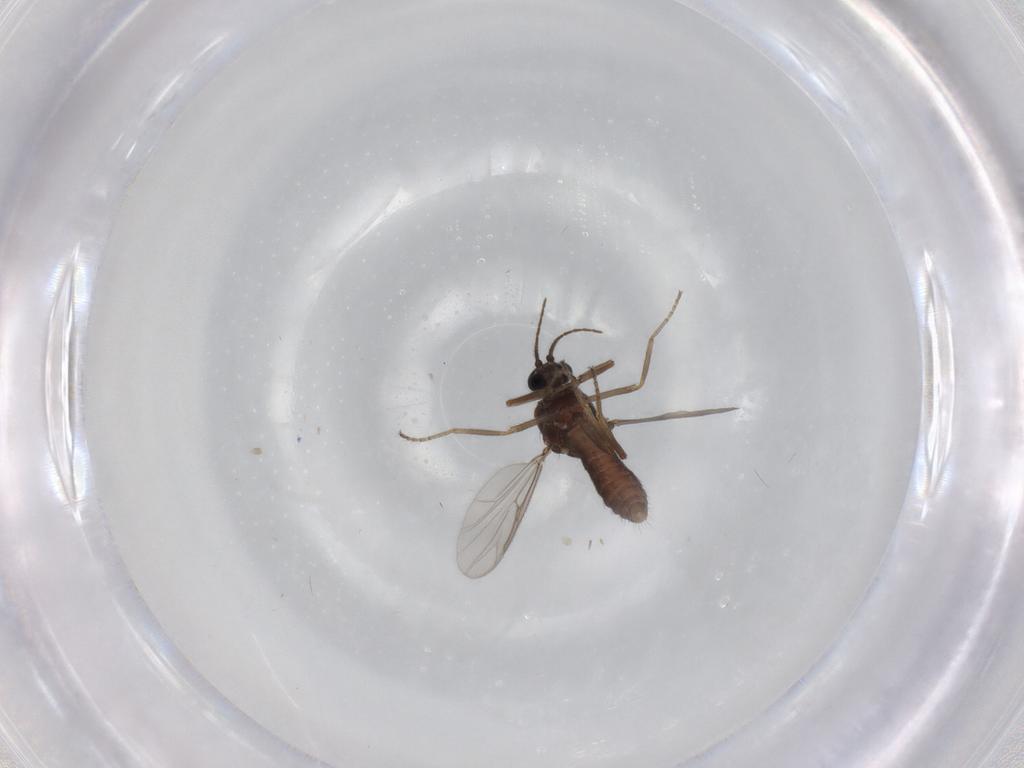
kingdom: Animalia
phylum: Arthropoda
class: Insecta
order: Diptera
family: Ceratopogonidae
